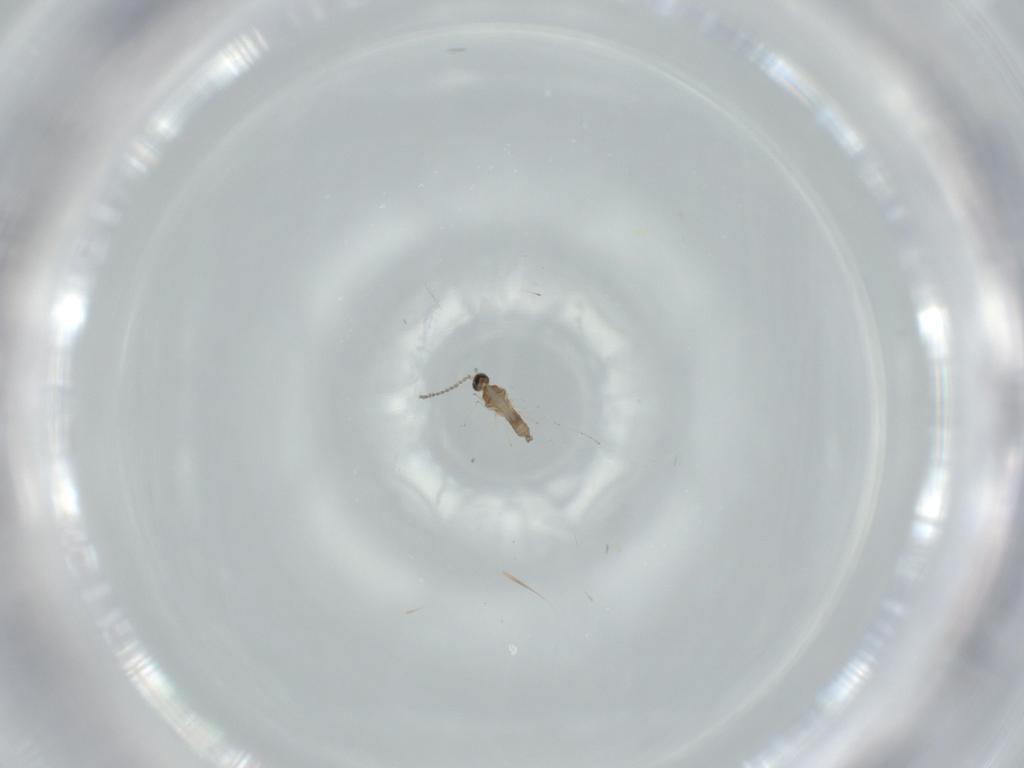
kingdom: Animalia
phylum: Arthropoda
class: Insecta
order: Diptera
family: Cecidomyiidae
